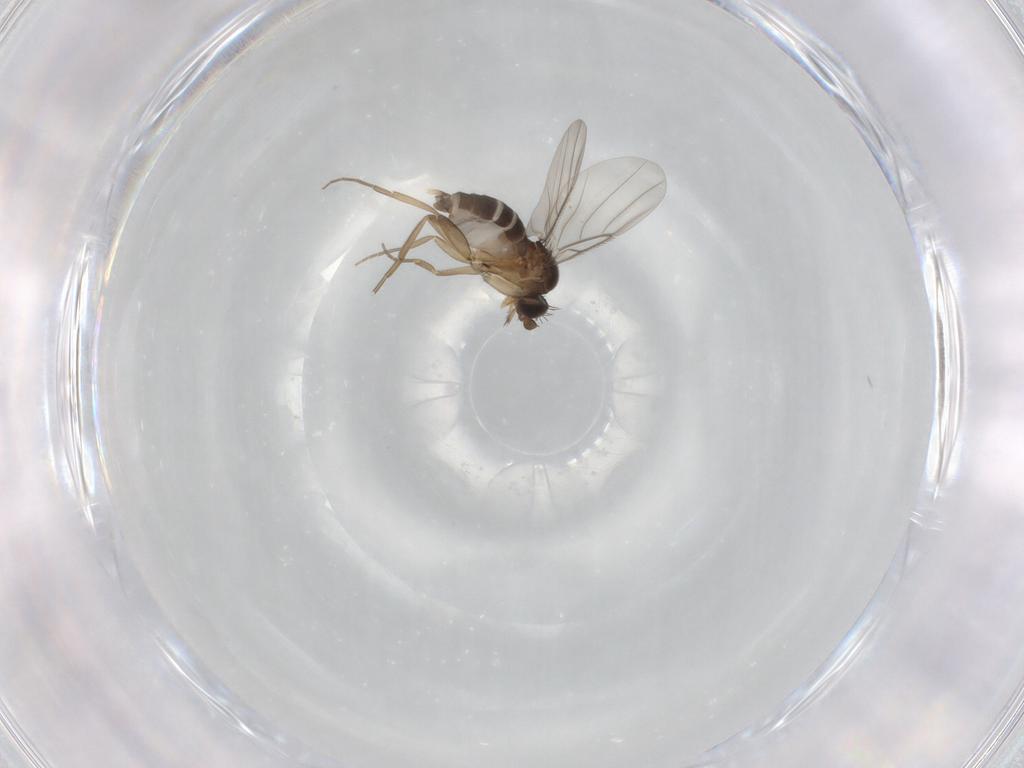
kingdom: Animalia
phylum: Arthropoda
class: Insecta
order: Diptera
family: Phoridae
